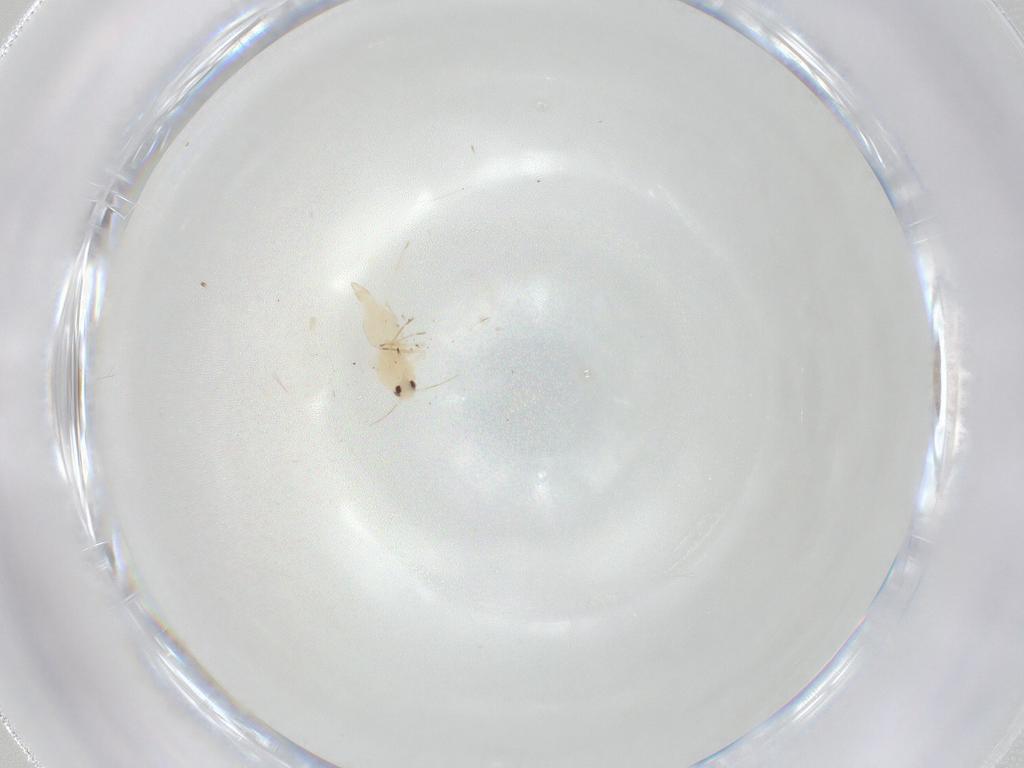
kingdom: Animalia
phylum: Arthropoda
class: Insecta
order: Hemiptera
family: Aleyrodidae
